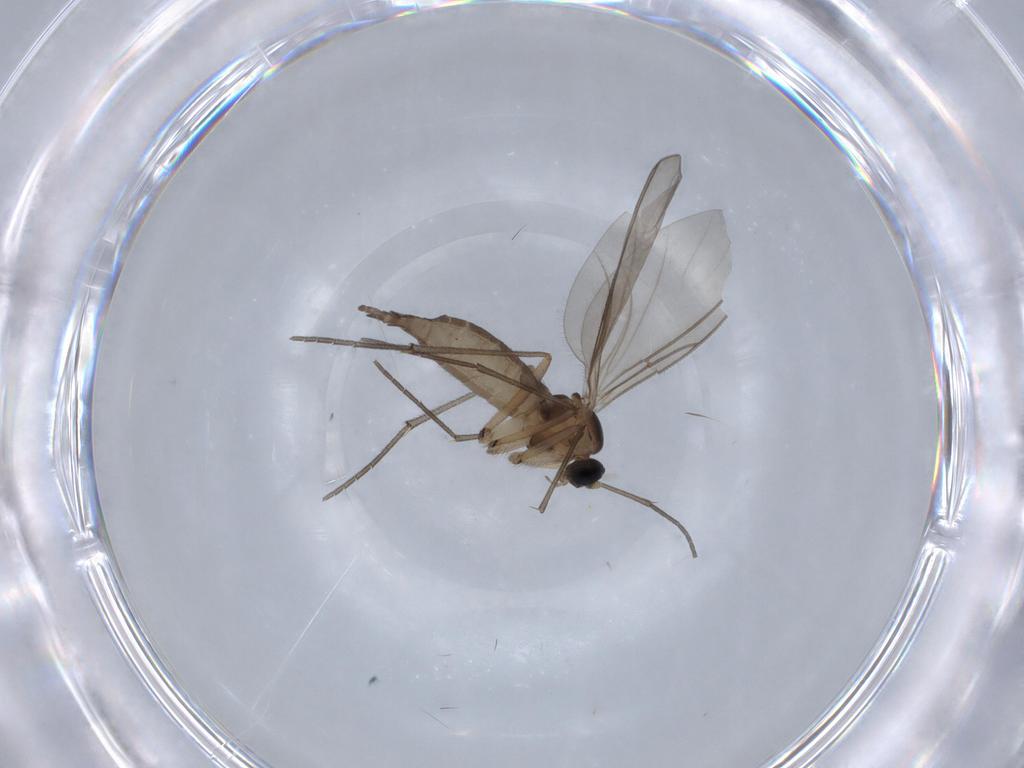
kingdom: Animalia
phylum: Arthropoda
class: Insecta
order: Diptera
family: Sciaridae
